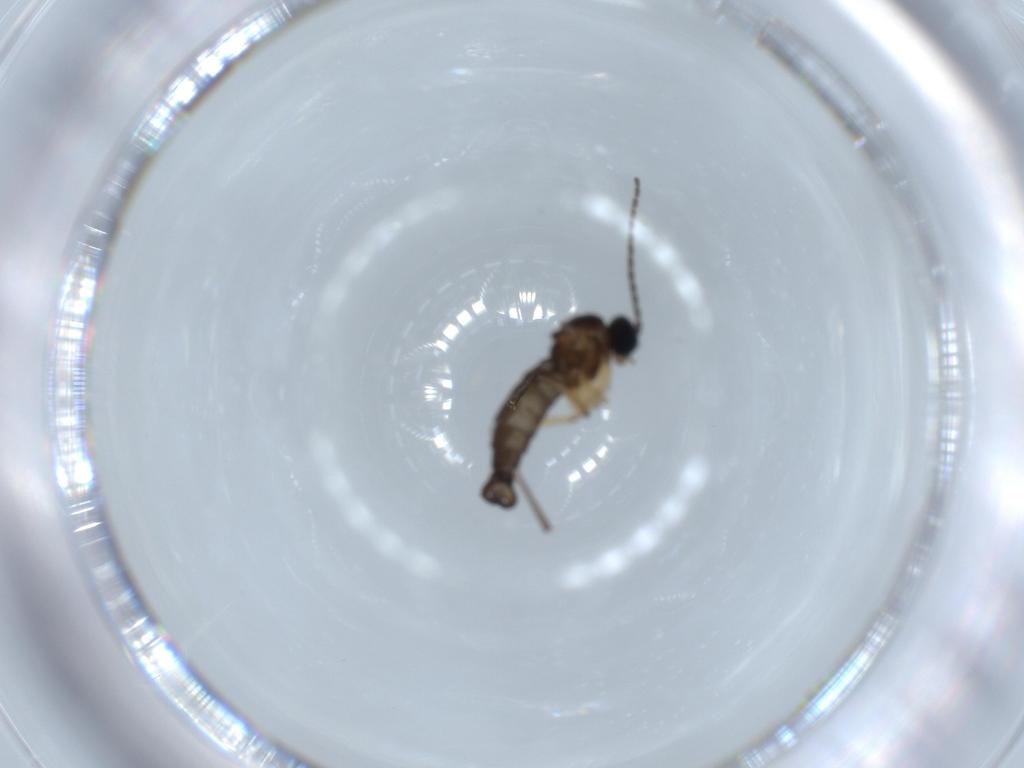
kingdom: Animalia
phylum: Arthropoda
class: Insecta
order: Diptera
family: Sciaridae
